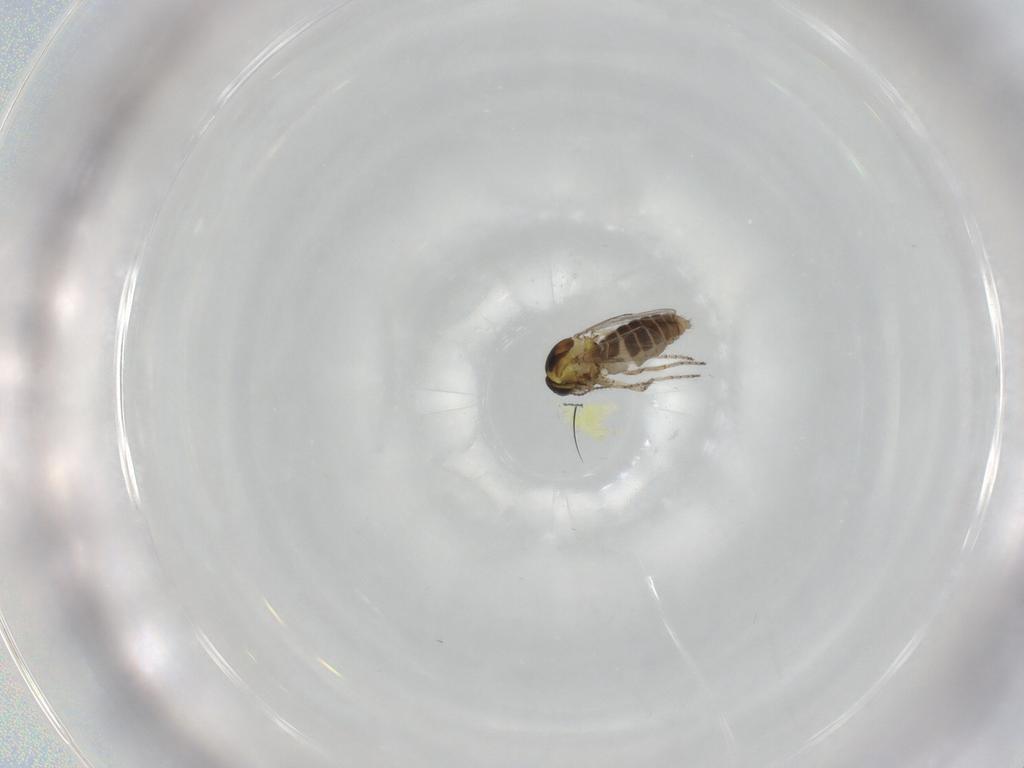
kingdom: Animalia
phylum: Arthropoda
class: Insecta
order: Diptera
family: Ceratopogonidae
